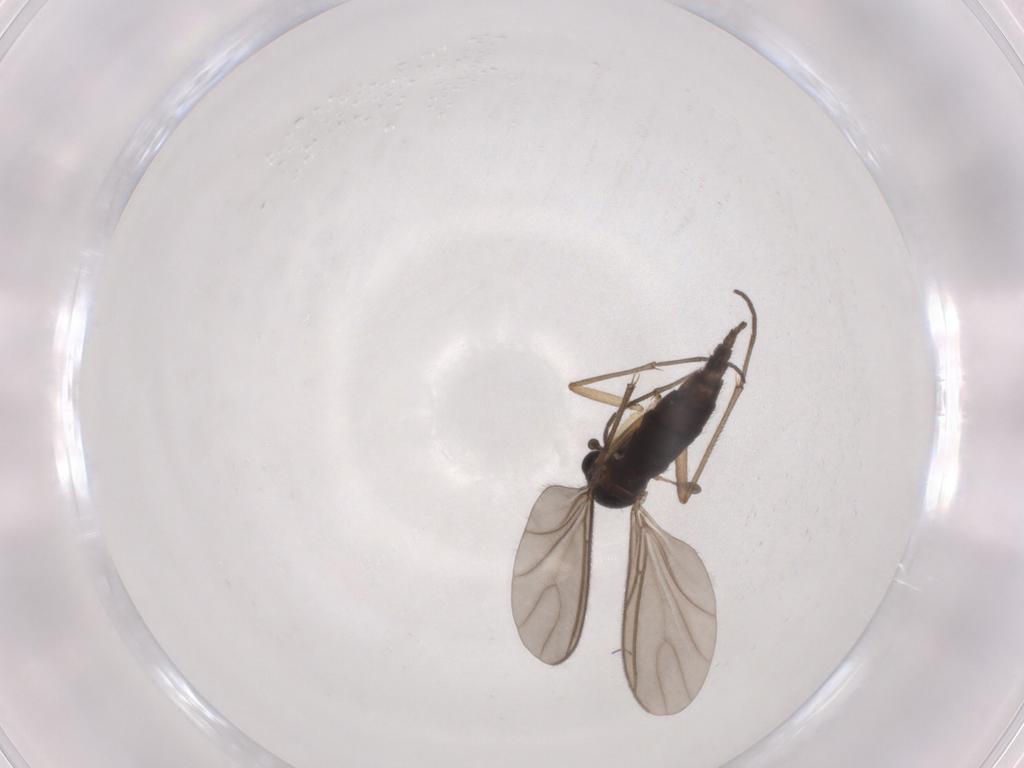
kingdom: Animalia
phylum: Arthropoda
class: Insecta
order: Diptera
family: Sciaridae
